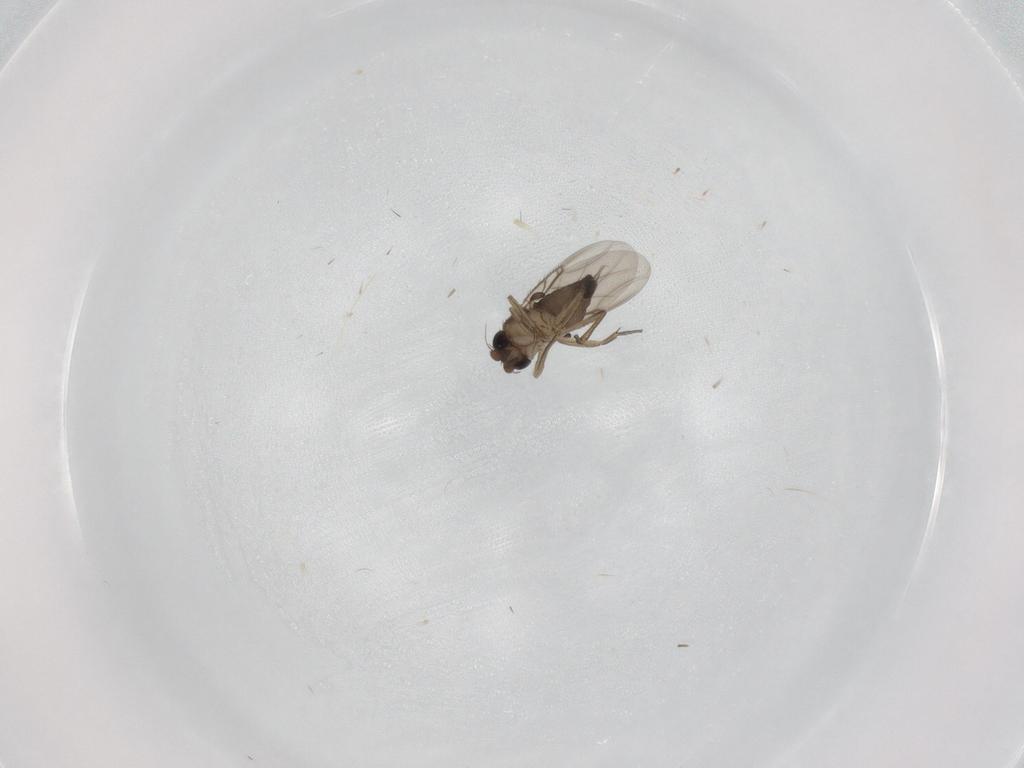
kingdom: Animalia
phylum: Arthropoda
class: Insecta
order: Diptera
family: Phoridae
